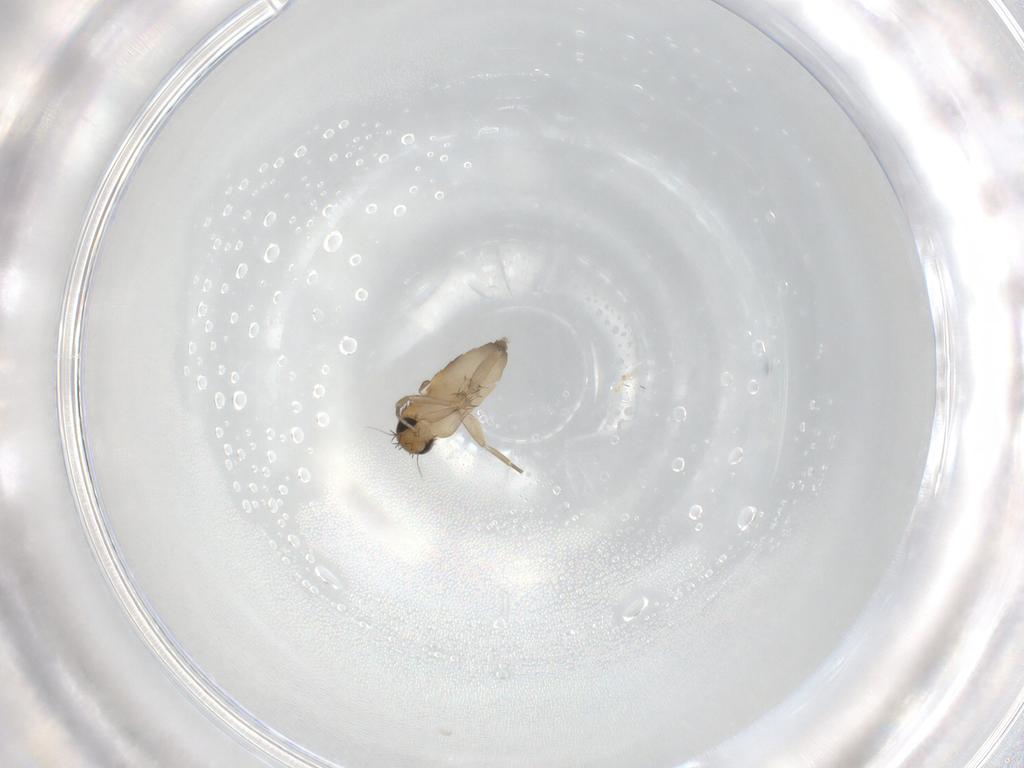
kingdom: Animalia
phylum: Arthropoda
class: Insecta
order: Diptera
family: Phoridae
